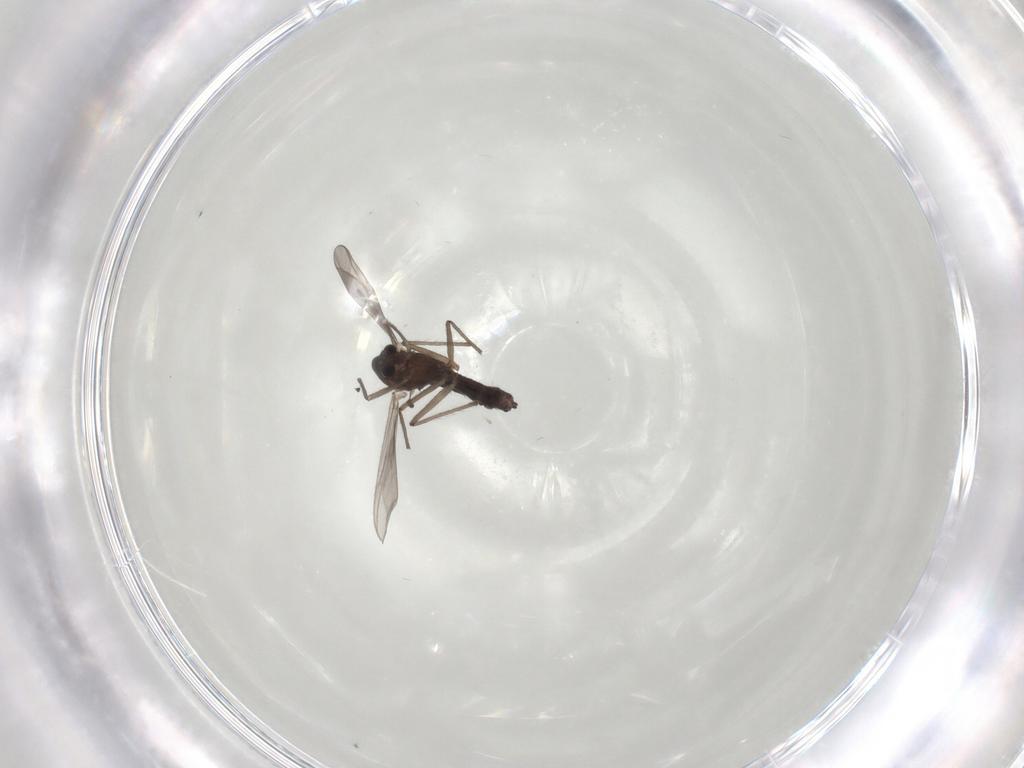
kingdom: Animalia
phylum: Arthropoda
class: Insecta
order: Diptera
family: Chironomidae
